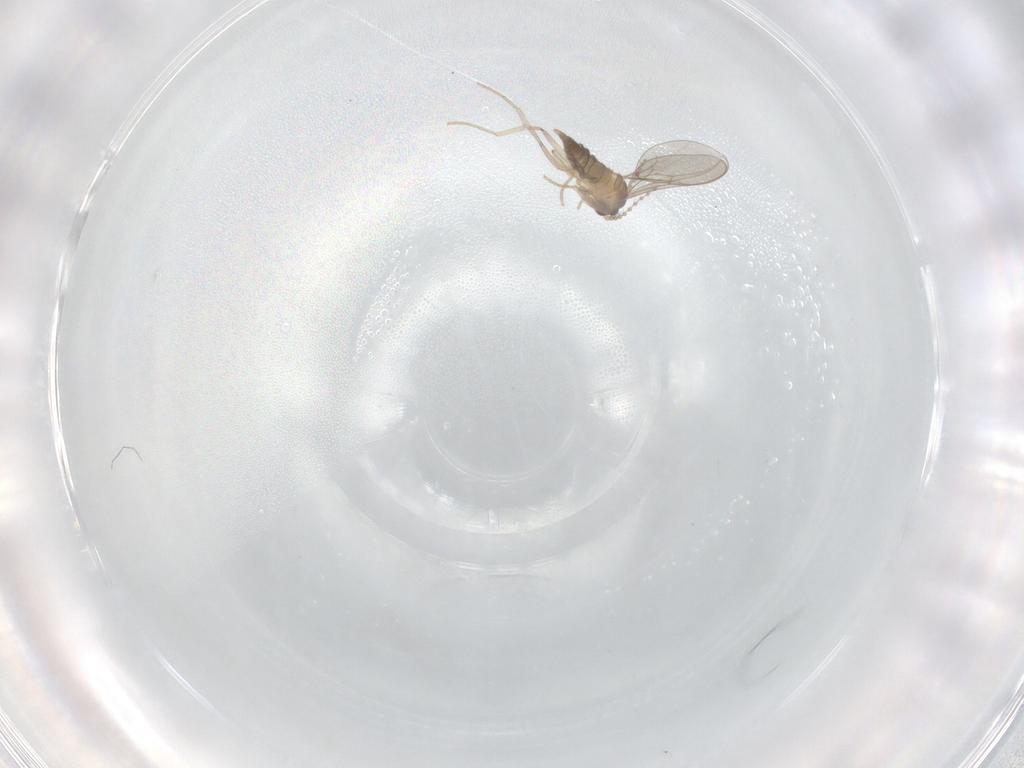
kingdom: Animalia
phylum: Arthropoda
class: Insecta
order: Diptera
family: Cecidomyiidae
